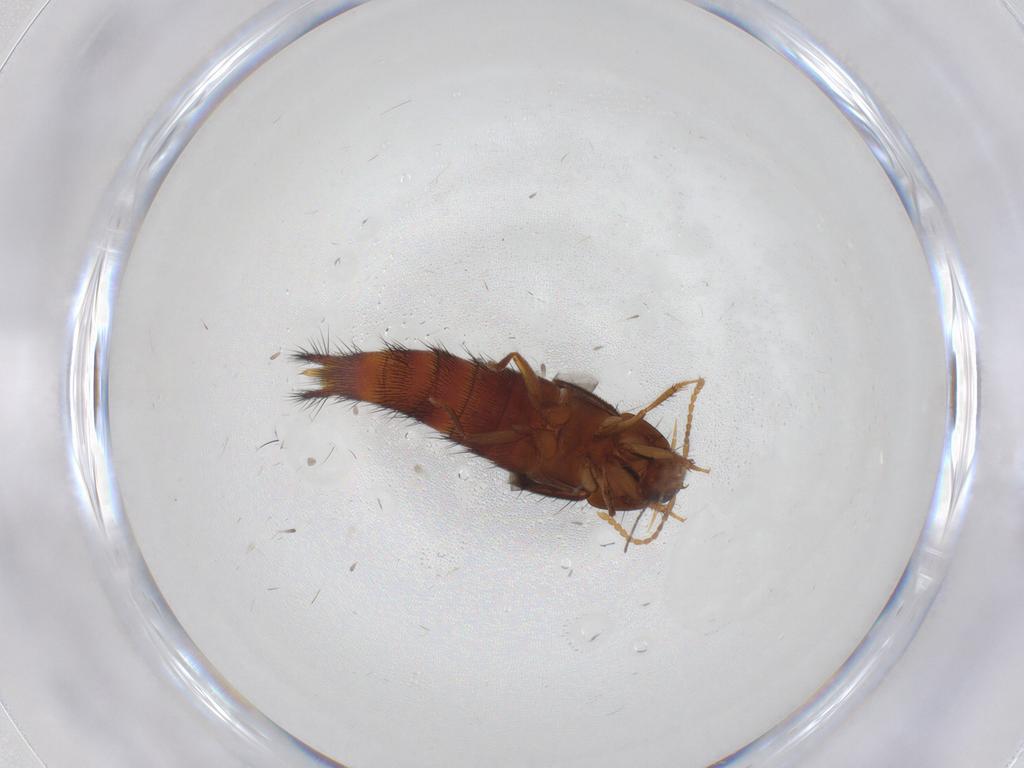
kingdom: Animalia
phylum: Arthropoda
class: Insecta
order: Coleoptera
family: Staphylinidae
